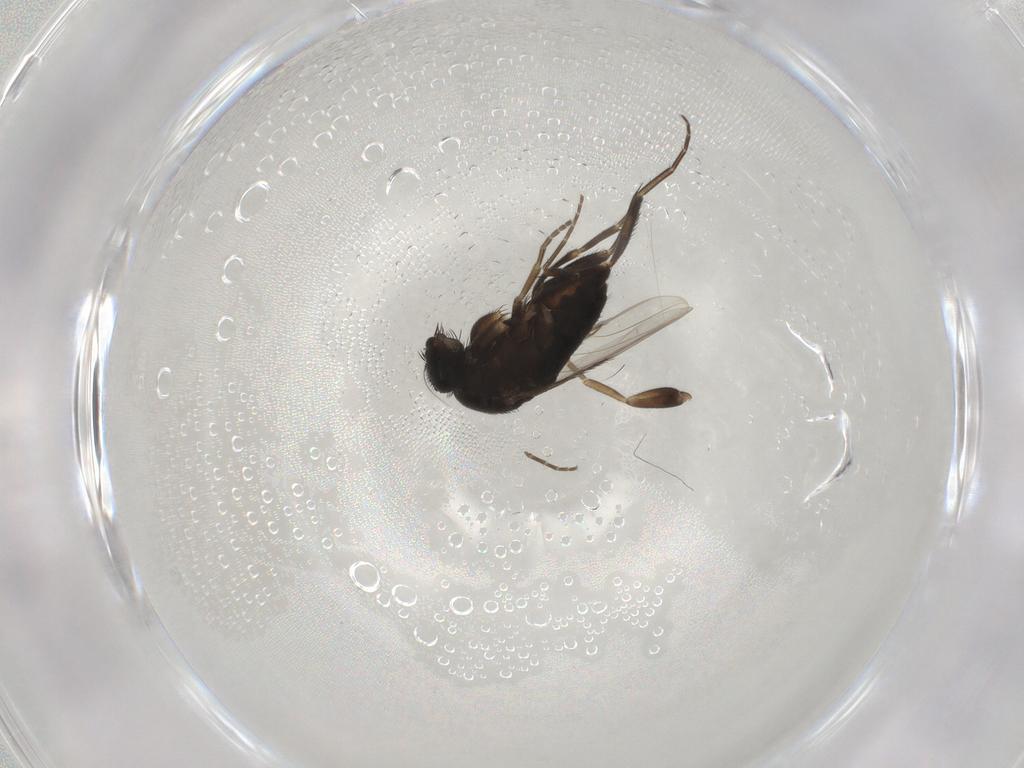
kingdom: Animalia
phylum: Arthropoda
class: Insecta
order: Diptera
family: Phoridae
